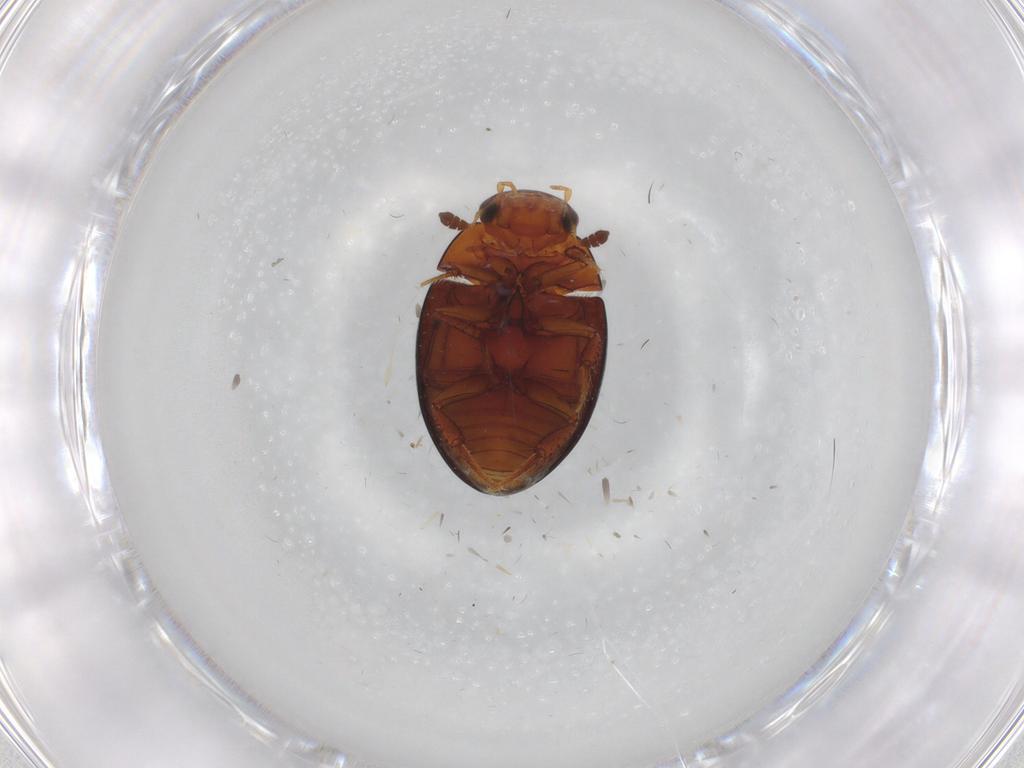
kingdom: Animalia
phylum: Arthropoda
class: Insecta
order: Coleoptera
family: Hydrophilidae
